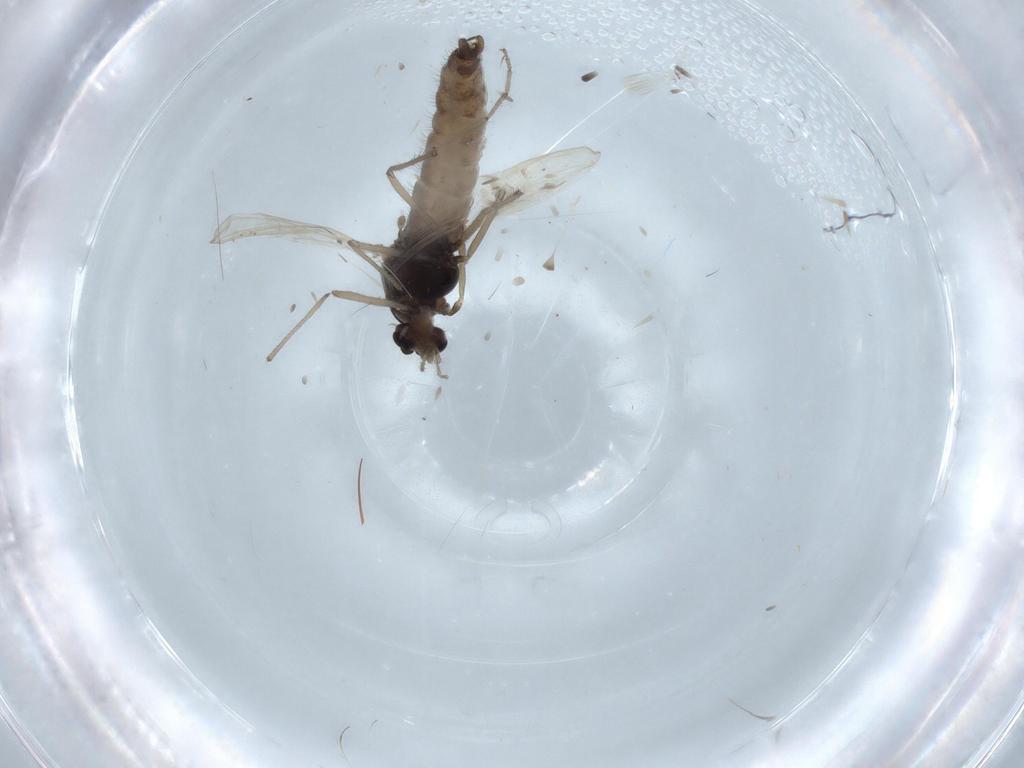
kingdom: Animalia
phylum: Arthropoda
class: Insecta
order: Diptera
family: Chironomidae
